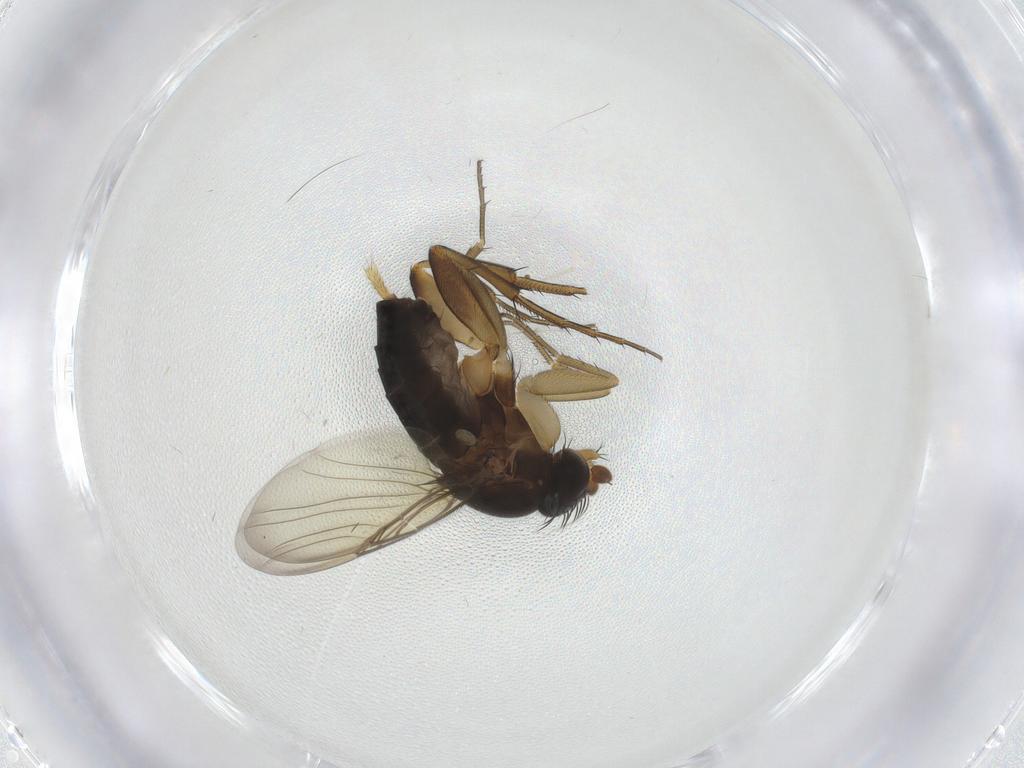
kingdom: Animalia
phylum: Arthropoda
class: Insecta
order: Diptera
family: Phoridae
